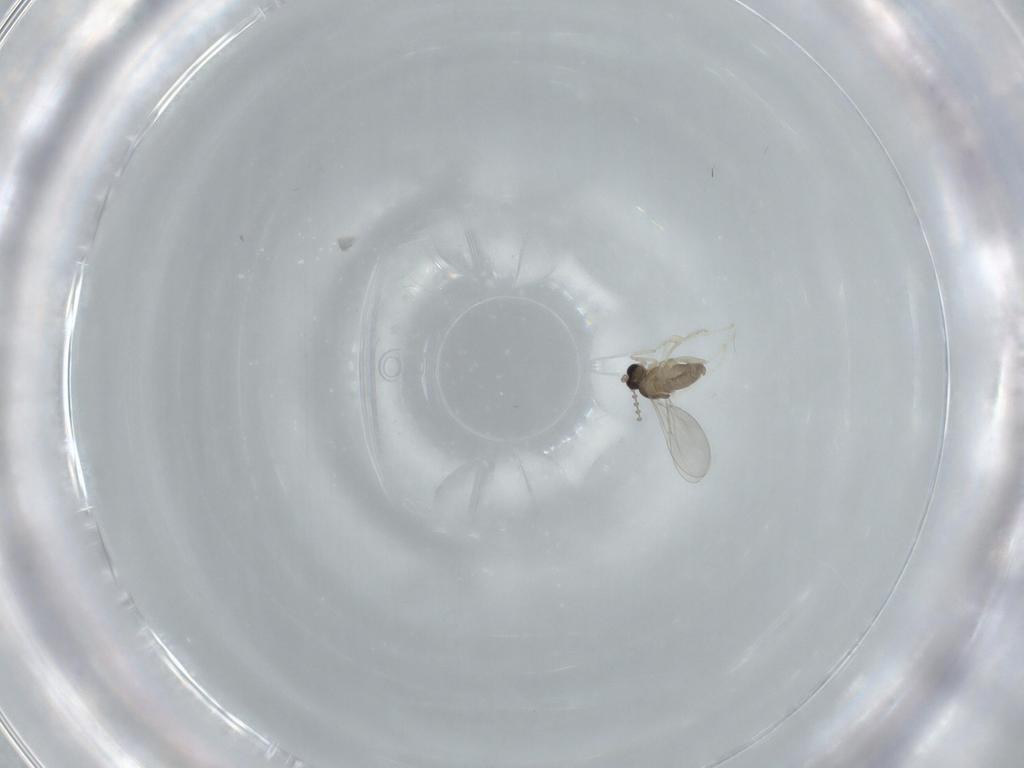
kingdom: Animalia
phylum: Arthropoda
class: Insecta
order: Diptera
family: Cecidomyiidae
